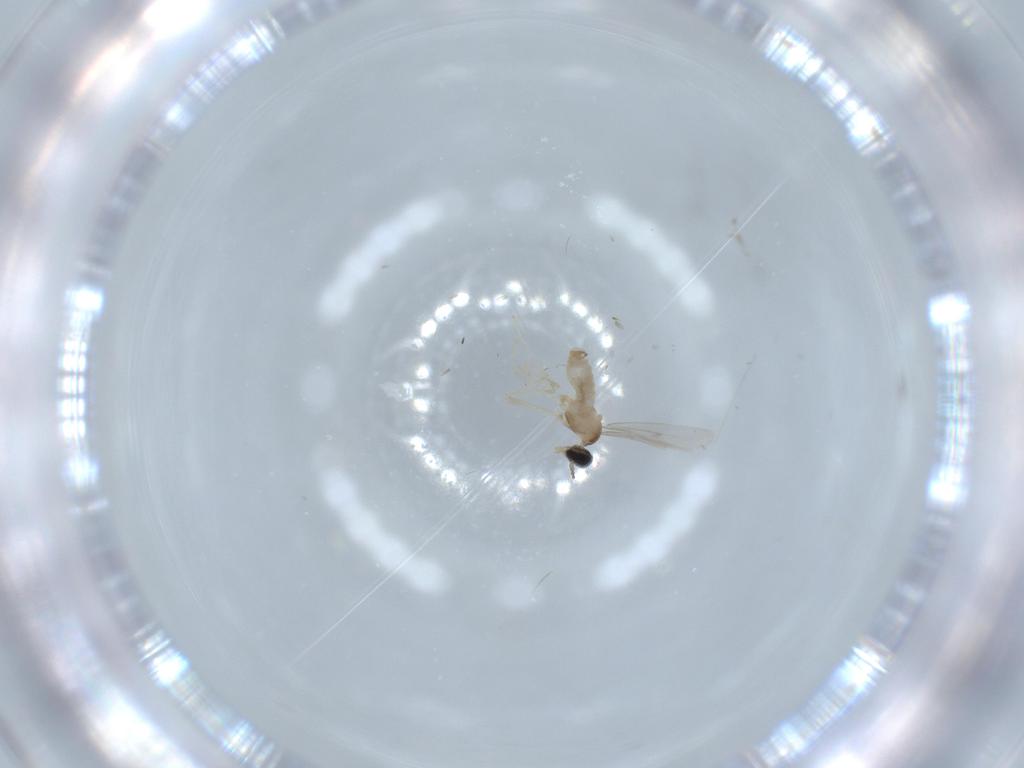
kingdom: Animalia
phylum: Arthropoda
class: Insecta
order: Diptera
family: Cecidomyiidae
